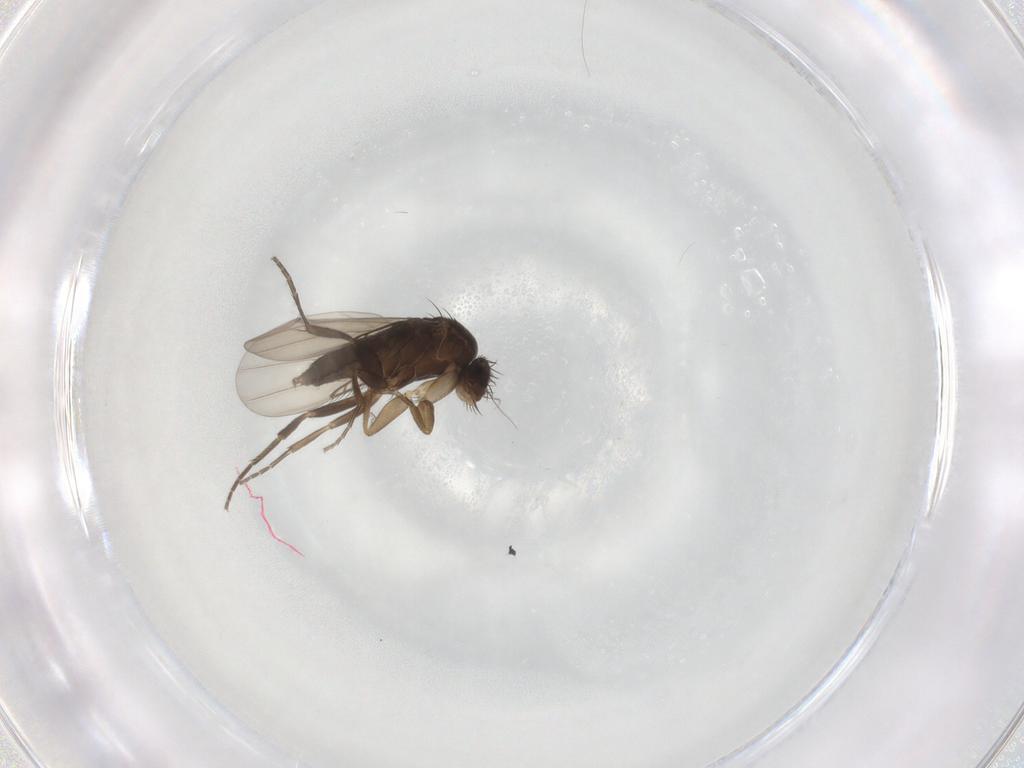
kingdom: Animalia
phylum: Arthropoda
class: Insecta
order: Diptera
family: Phoridae
